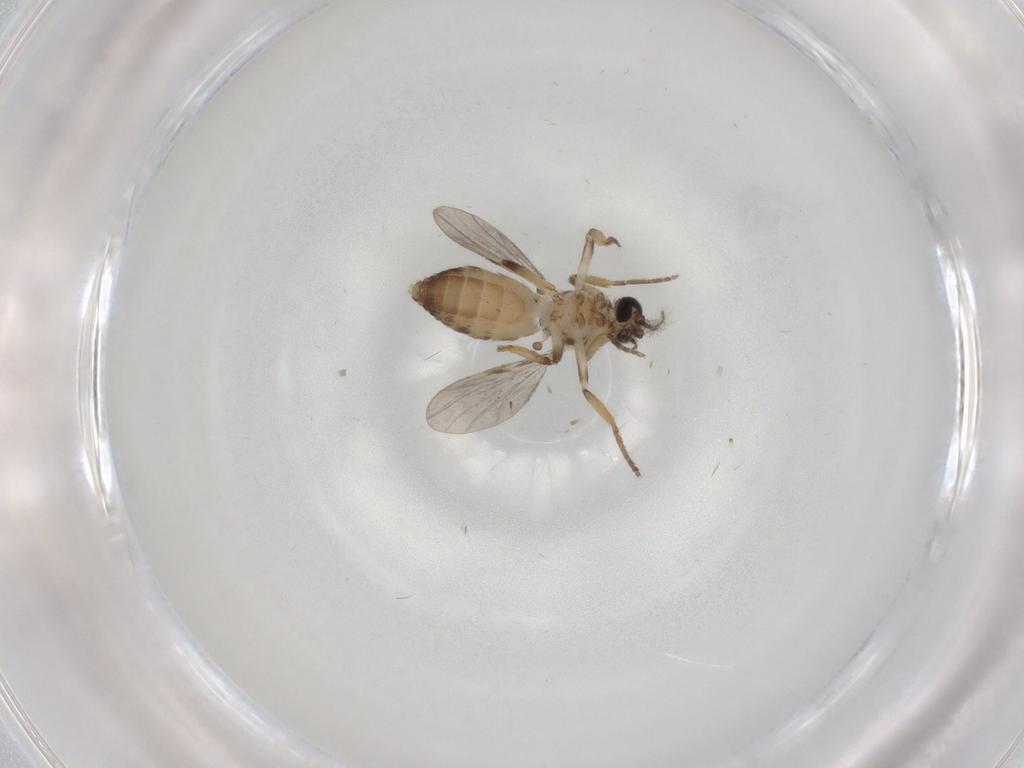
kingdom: Animalia
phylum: Arthropoda
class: Insecta
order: Diptera
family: Ceratopogonidae
